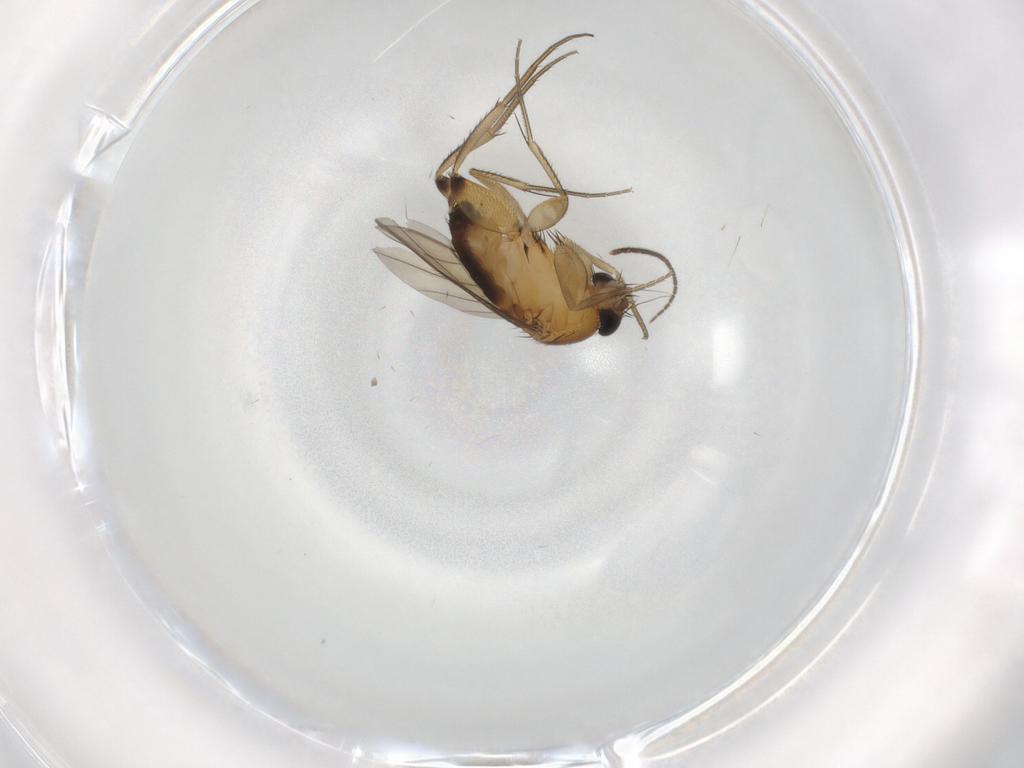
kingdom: Animalia
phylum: Arthropoda
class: Insecta
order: Diptera
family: Phoridae
